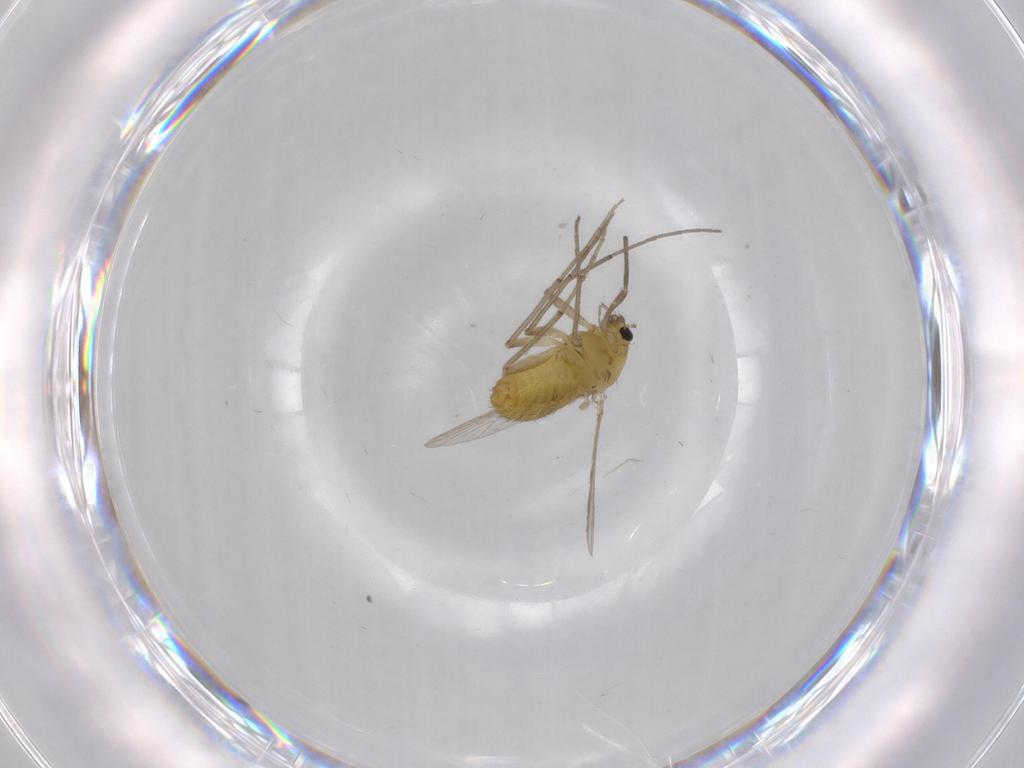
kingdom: Animalia
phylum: Arthropoda
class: Insecta
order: Diptera
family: Chironomidae
